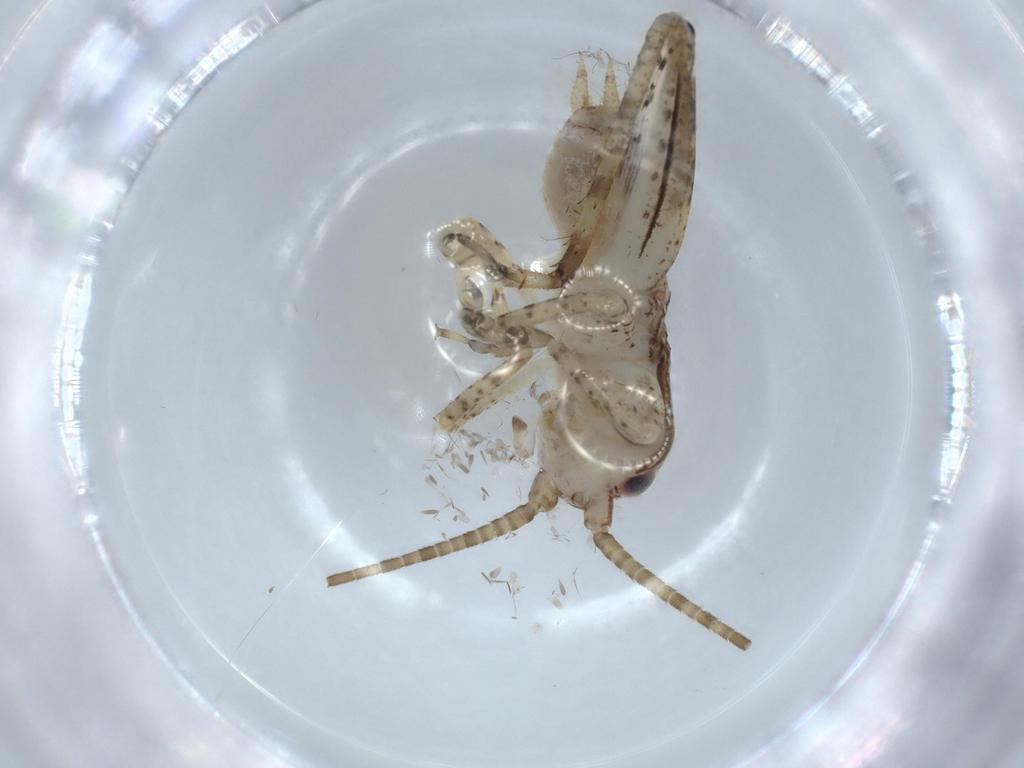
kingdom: Animalia
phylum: Arthropoda
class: Insecta
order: Orthoptera
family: Gryllidae
